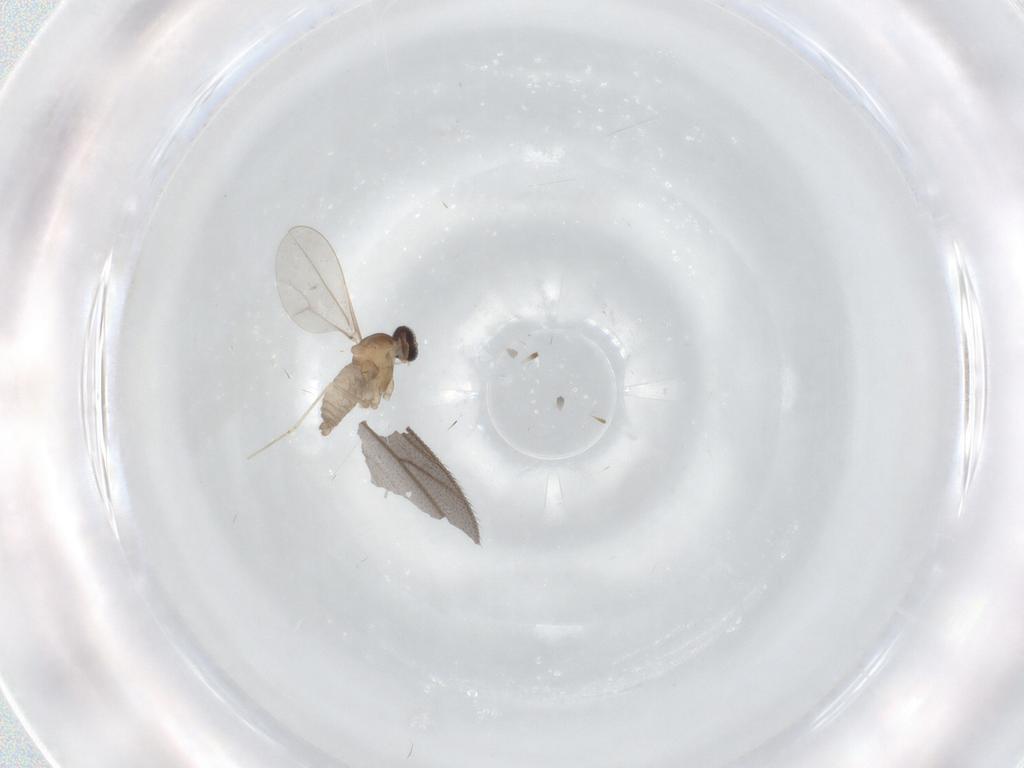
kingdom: Animalia
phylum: Arthropoda
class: Insecta
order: Diptera
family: Cecidomyiidae
